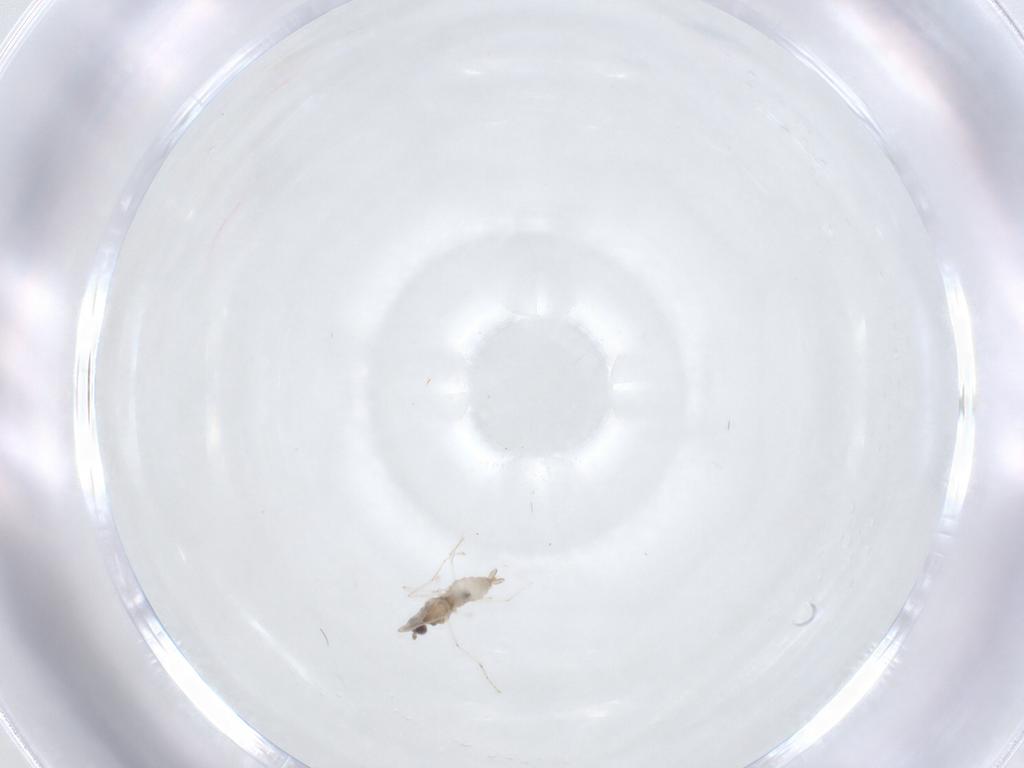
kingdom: Animalia
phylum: Arthropoda
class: Insecta
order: Diptera
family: Cecidomyiidae
